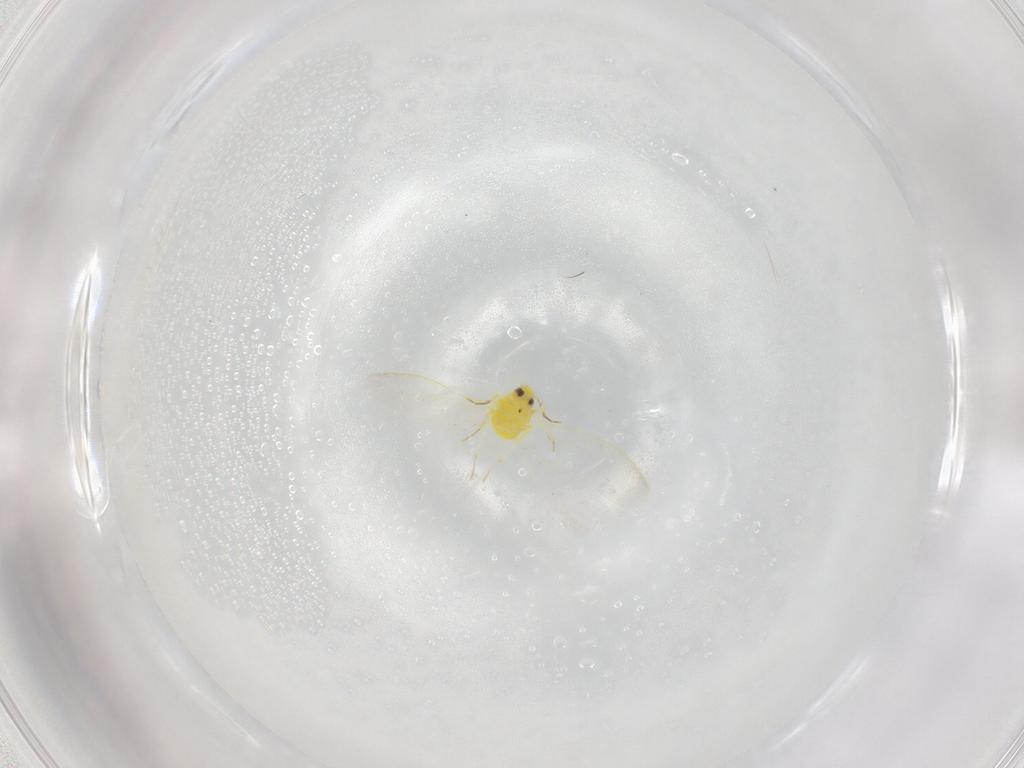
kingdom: Animalia
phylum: Arthropoda
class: Insecta
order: Hemiptera
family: Aleyrodidae
